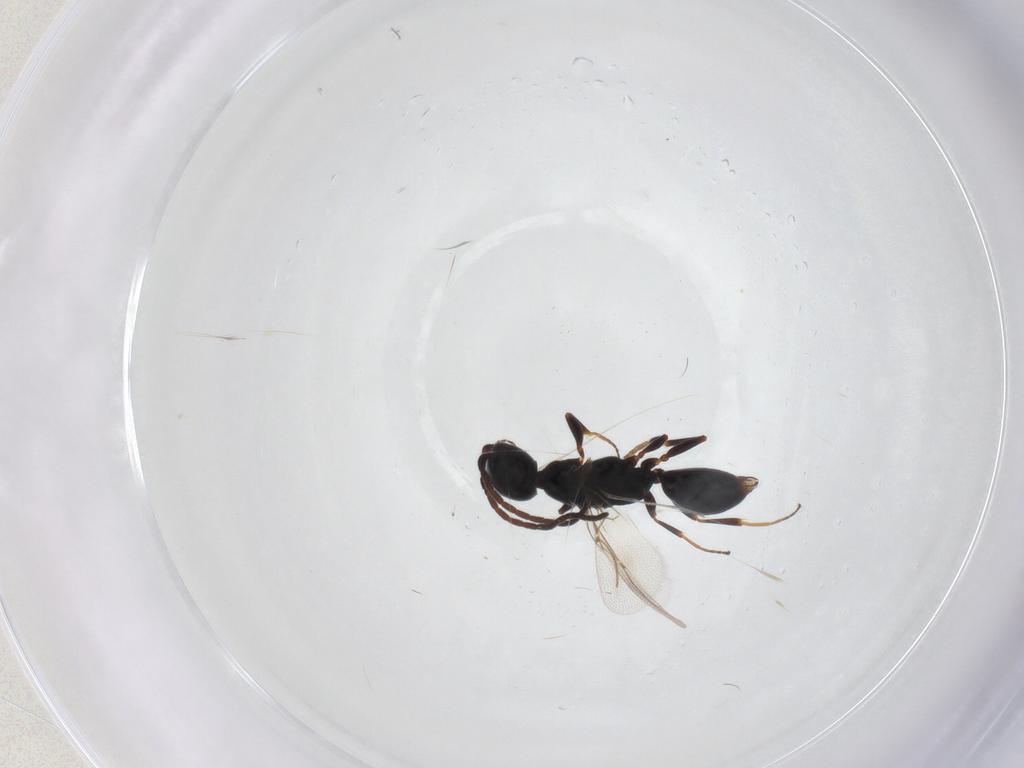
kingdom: Animalia
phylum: Arthropoda
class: Insecta
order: Hymenoptera
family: Bethylidae
